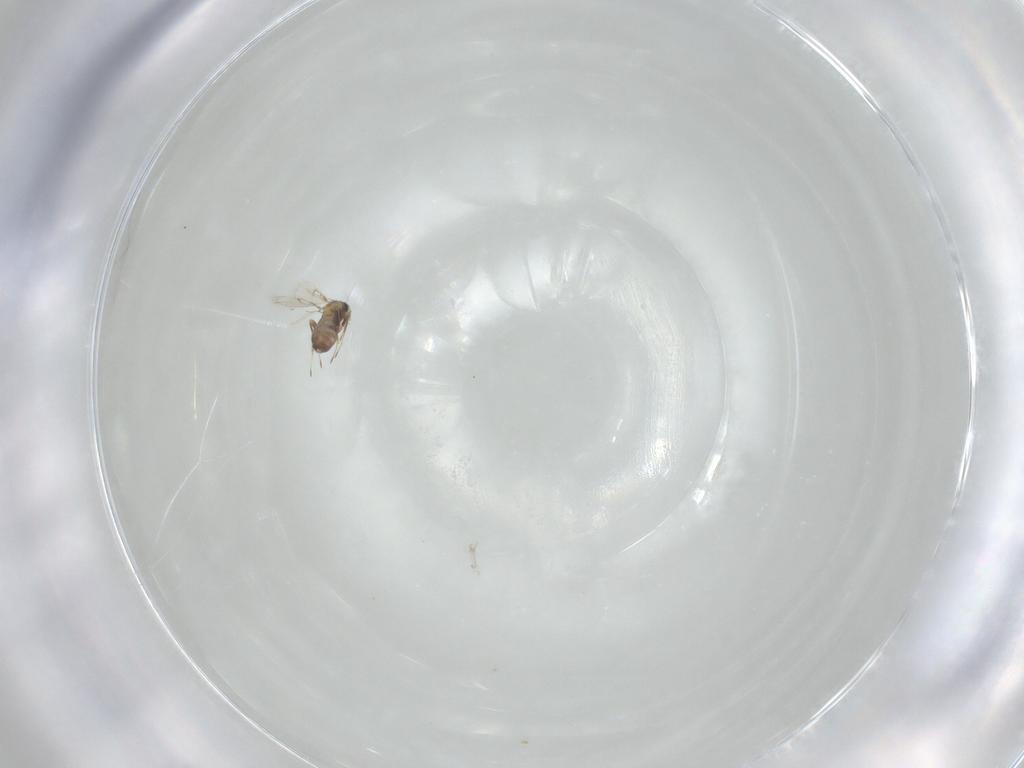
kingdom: Animalia
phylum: Arthropoda
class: Insecta
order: Hymenoptera
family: Trichogrammatidae
